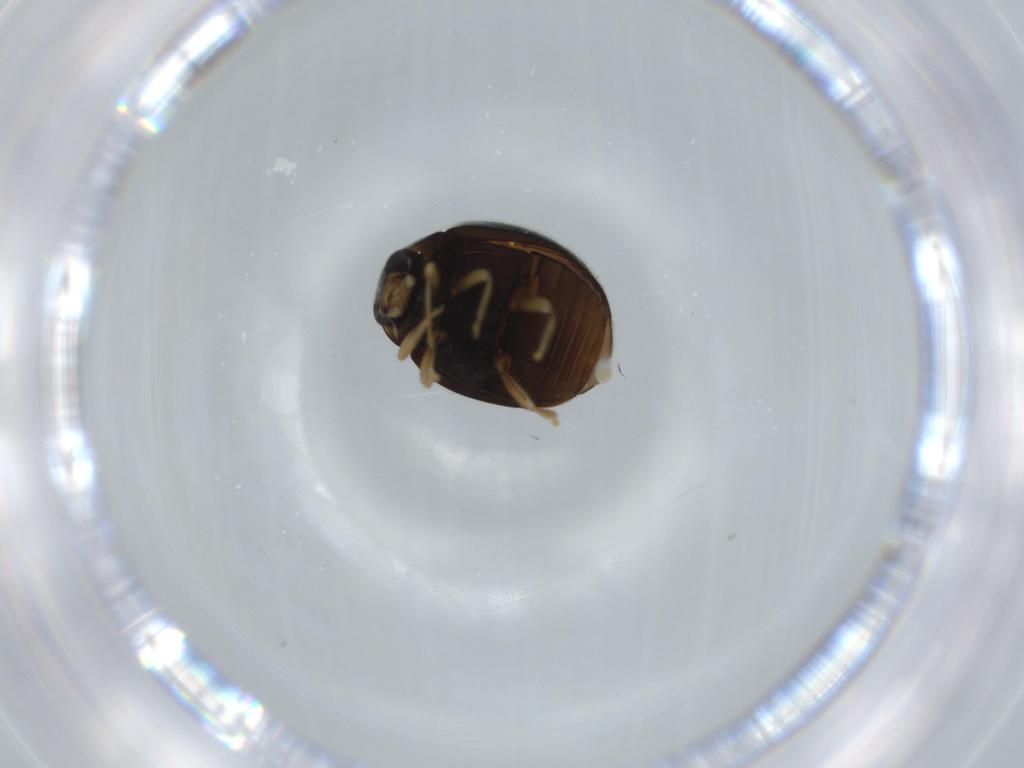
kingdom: Animalia
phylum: Arthropoda
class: Insecta
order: Coleoptera
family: Coccinellidae
